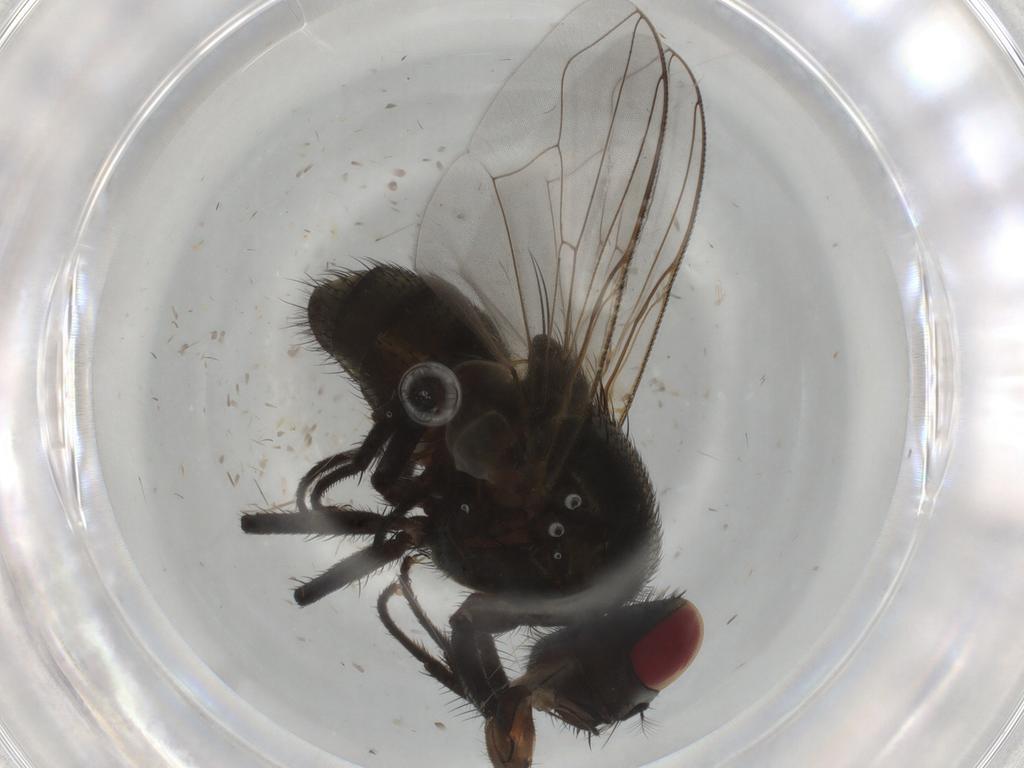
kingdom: Animalia
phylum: Arthropoda
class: Insecta
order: Diptera
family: Muscidae
